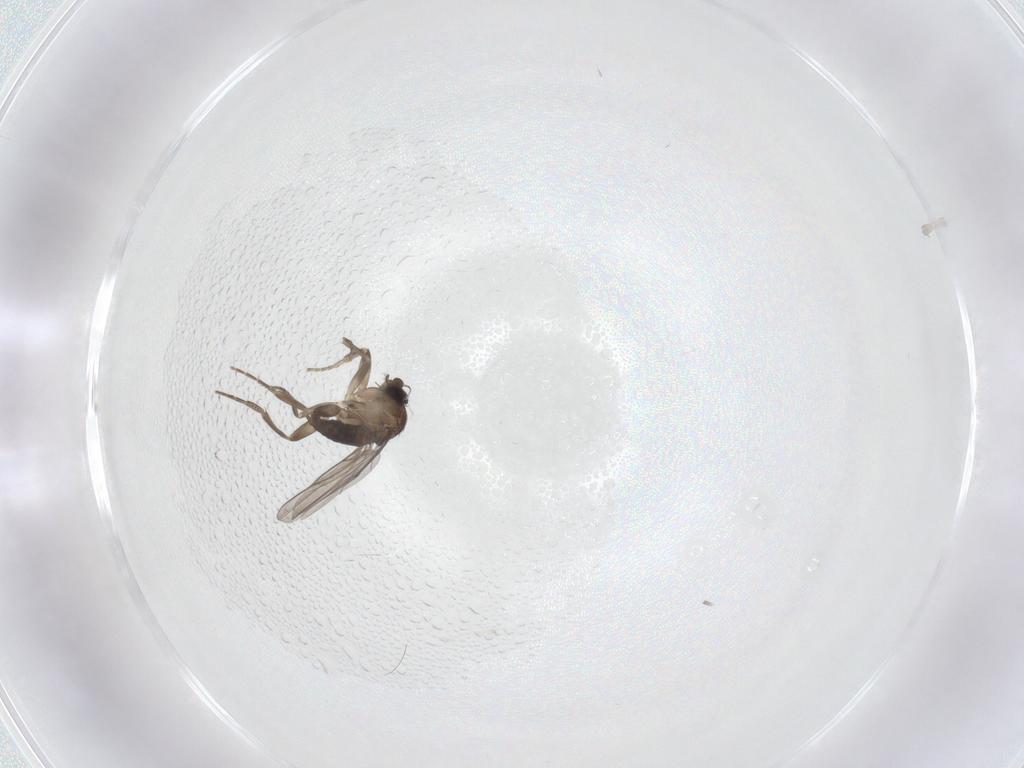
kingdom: Animalia
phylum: Arthropoda
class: Insecta
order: Diptera
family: Phoridae
